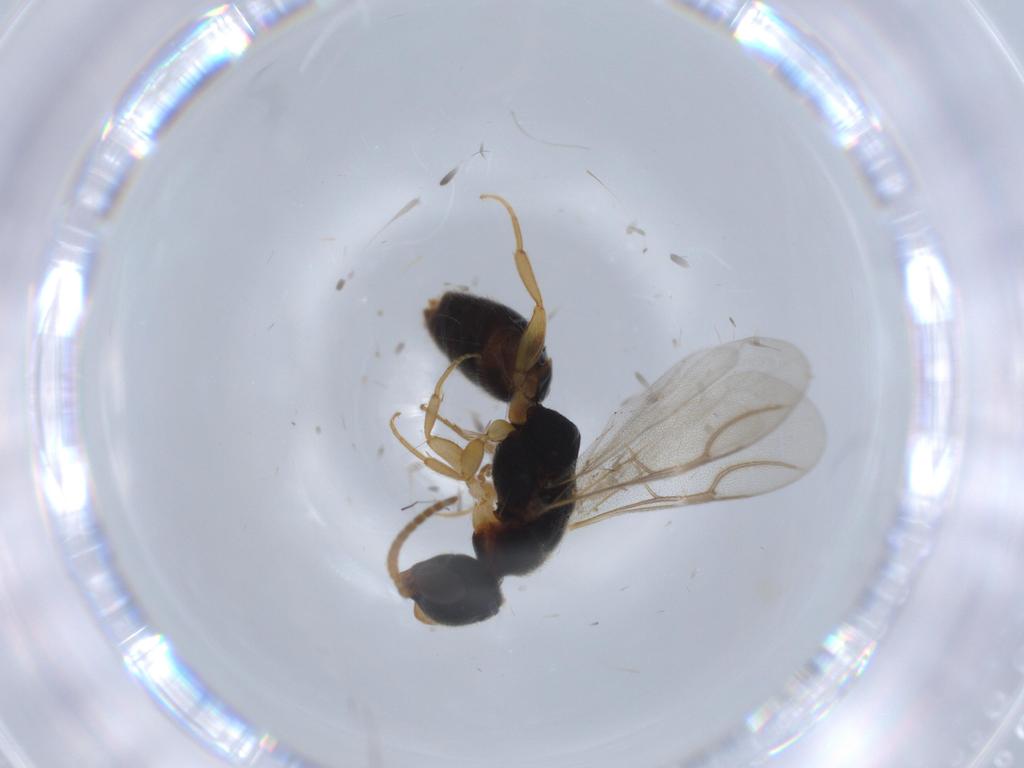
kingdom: Animalia
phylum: Arthropoda
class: Insecta
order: Hymenoptera
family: Bethylidae
